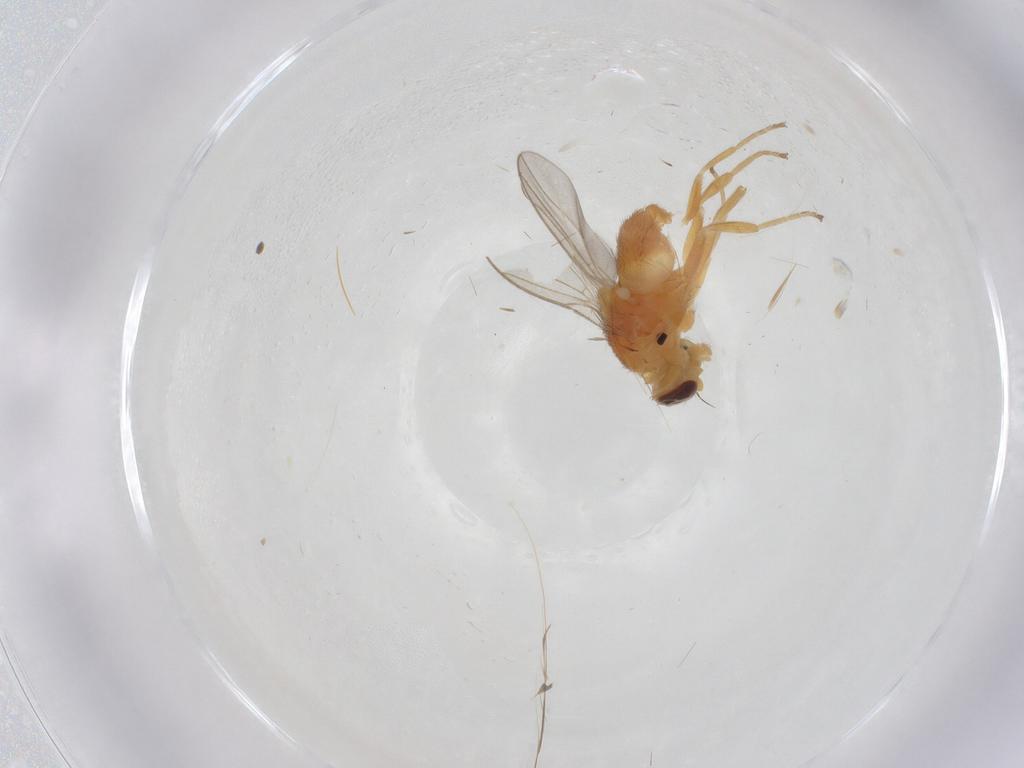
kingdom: Animalia
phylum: Arthropoda
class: Insecta
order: Diptera
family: Chloropidae
